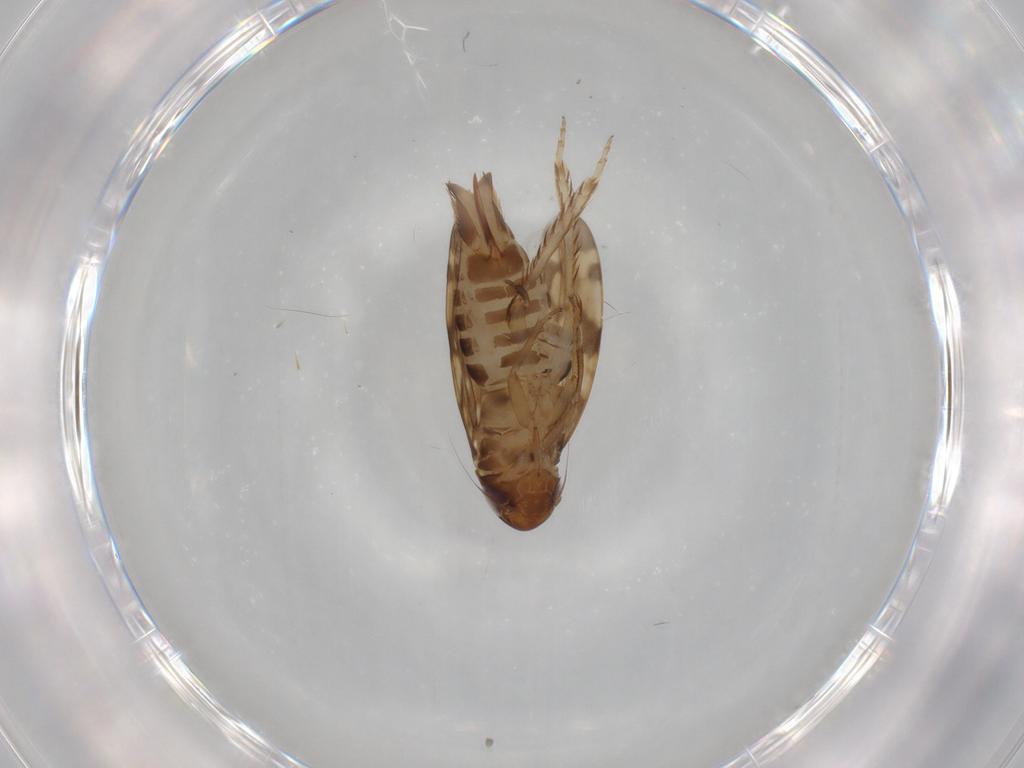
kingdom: Animalia
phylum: Arthropoda
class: Insecta
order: Hemiptera
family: Cicadellidae
